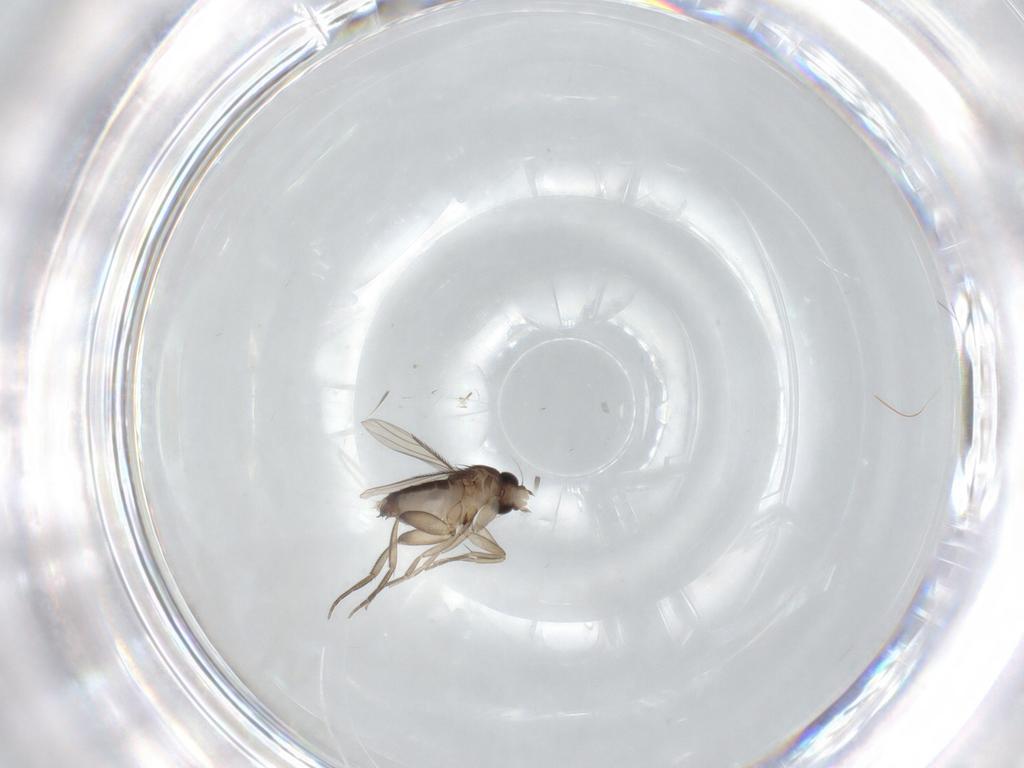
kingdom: Animalia
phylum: Arthropoda
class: Insecta
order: Diptera
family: Phoridae
